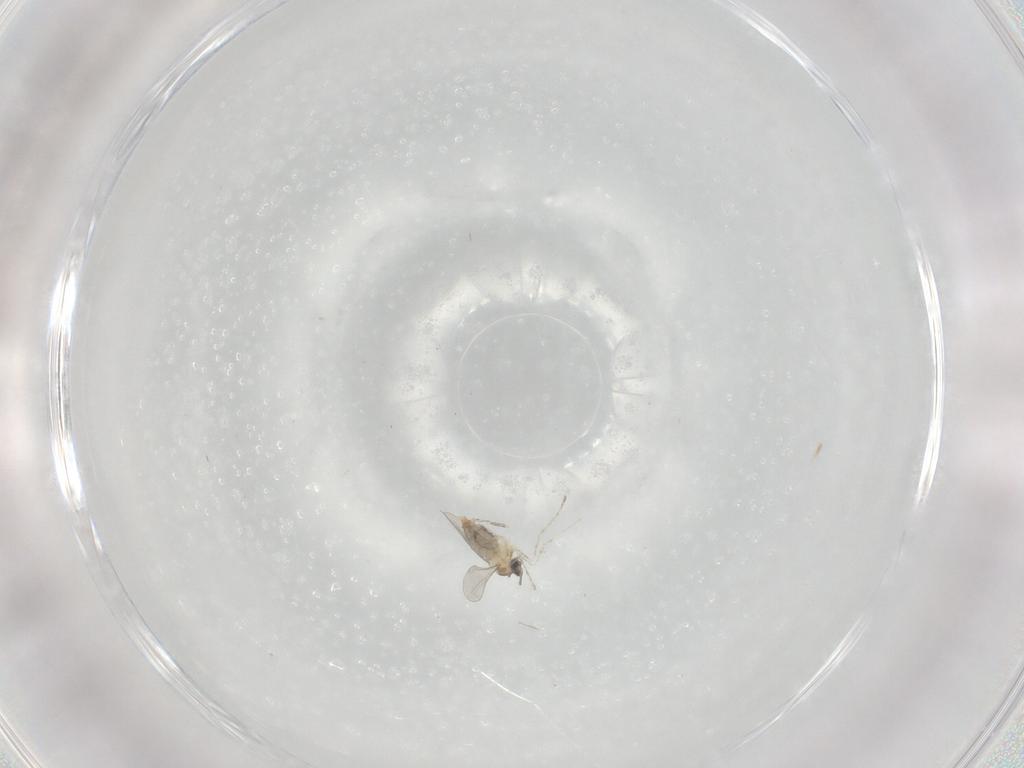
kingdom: Animalia
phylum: Arthropoda
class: Insecta
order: Diptera
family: Cecidomyiidae
